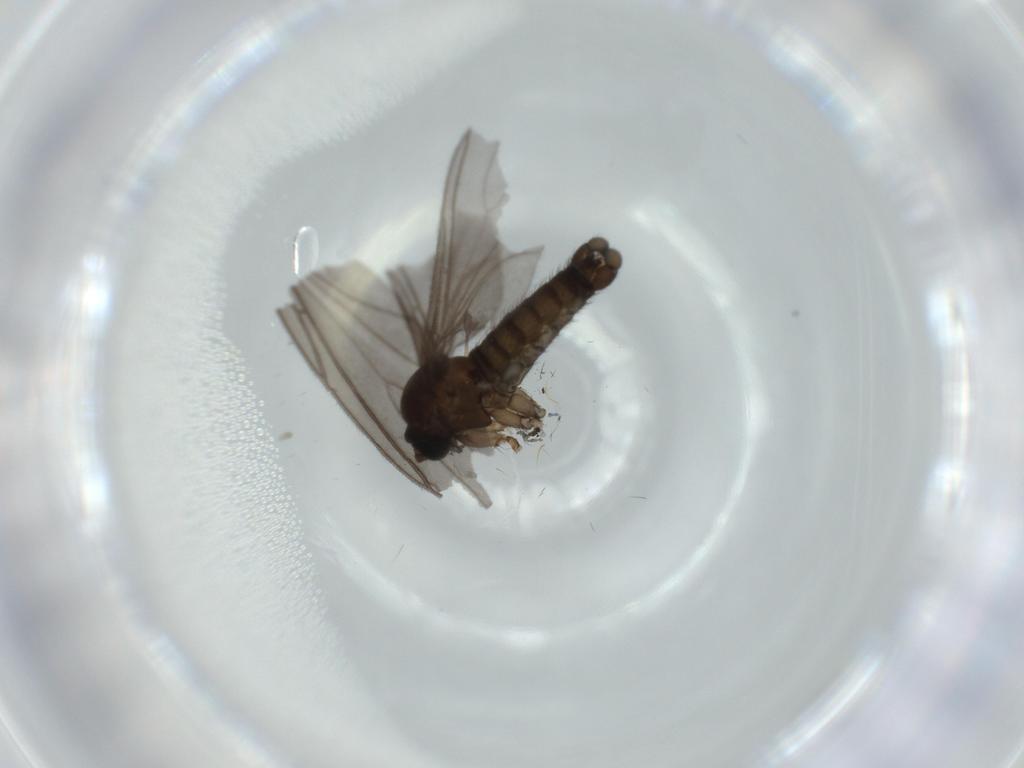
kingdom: Animalia
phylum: Arthropoda
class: Insecta
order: Diptera
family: Sciaridae
